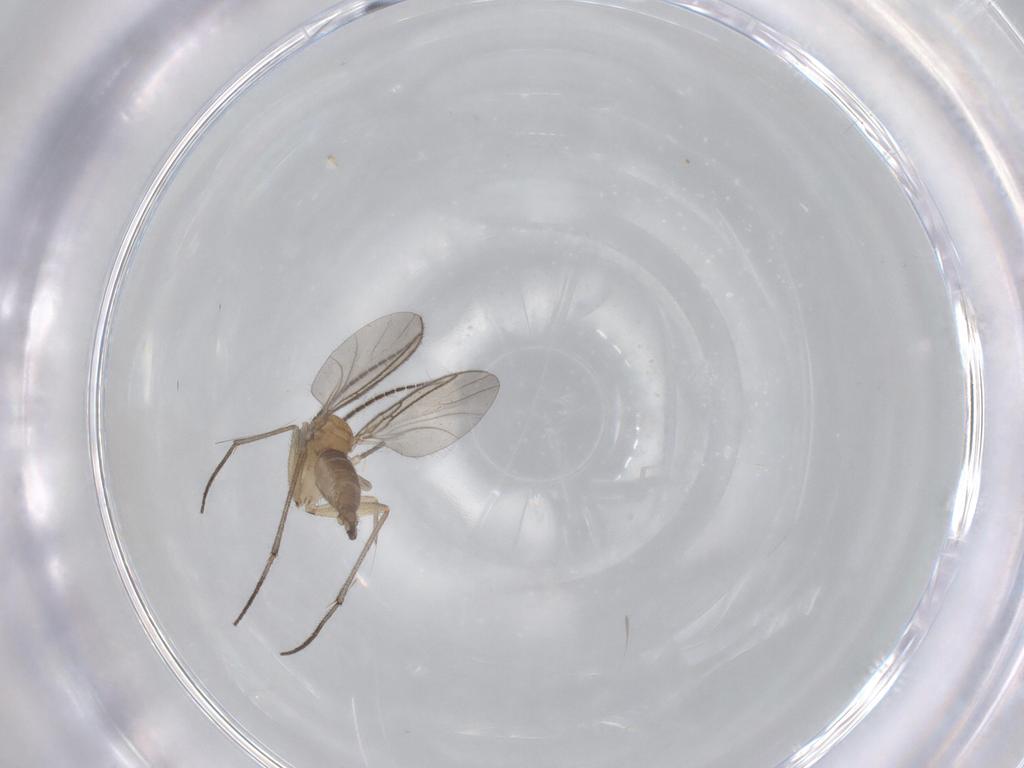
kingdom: Animalia
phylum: Arthropoda
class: Insecta
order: Diptera
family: Sciaridae
